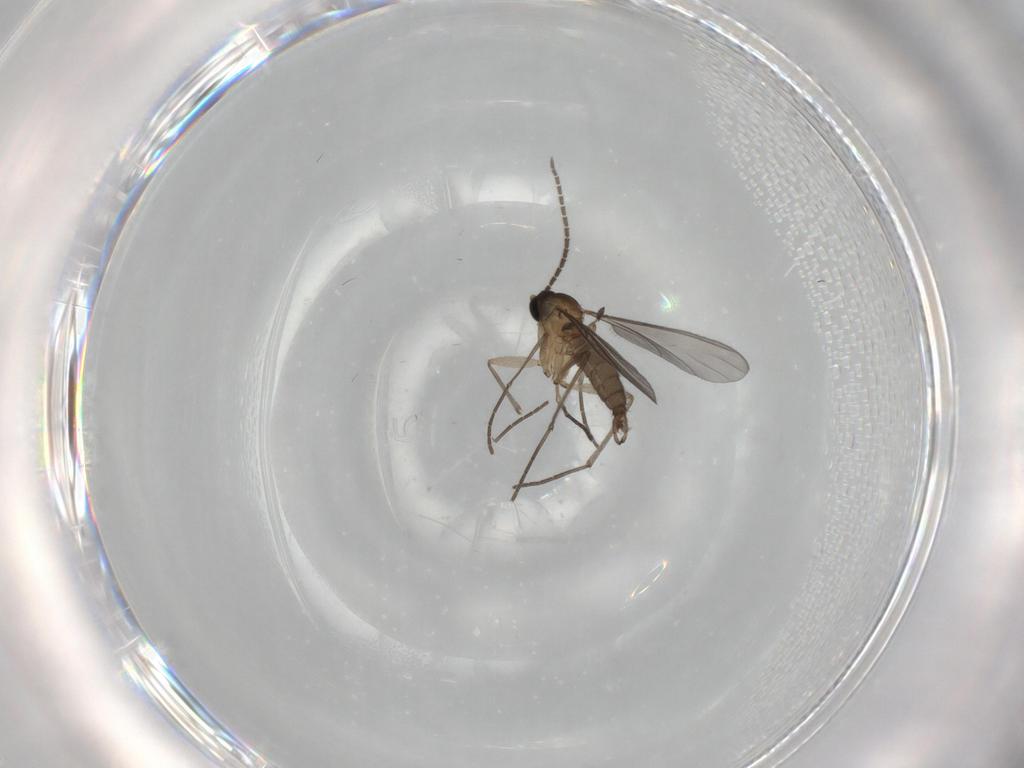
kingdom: Animalia
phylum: Arthropoda
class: Insecta
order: Diptera
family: Sciaridae
